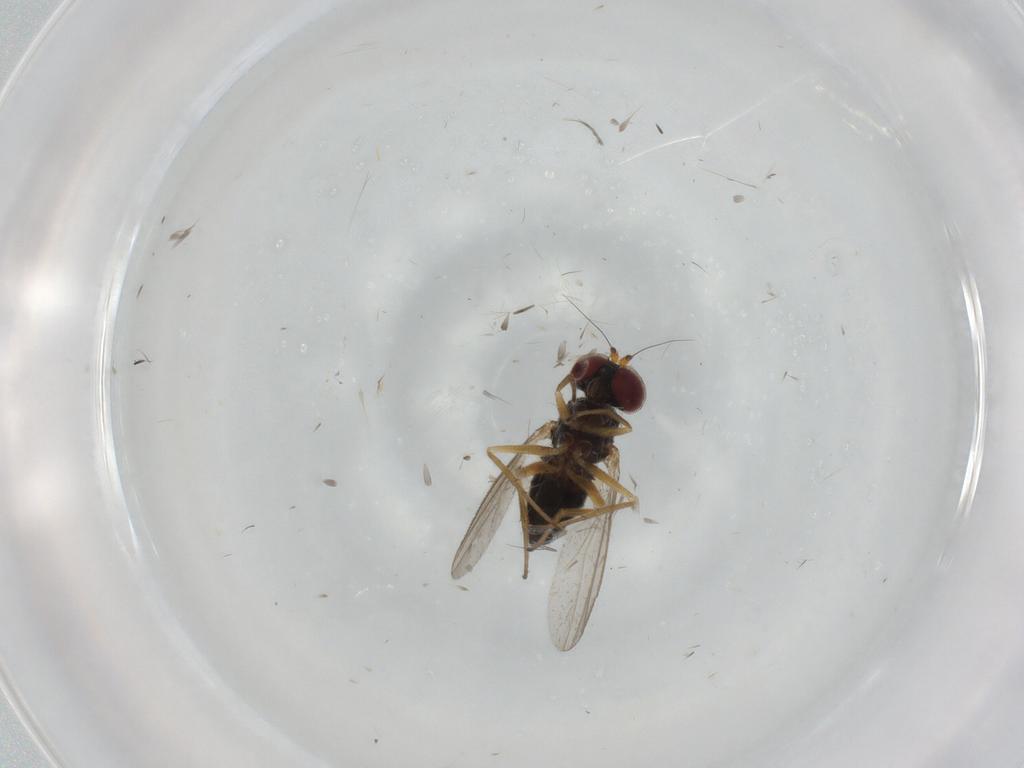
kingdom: Animalia
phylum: Arthropoda
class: Insecta
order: Diptera
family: Dolichopodidae
